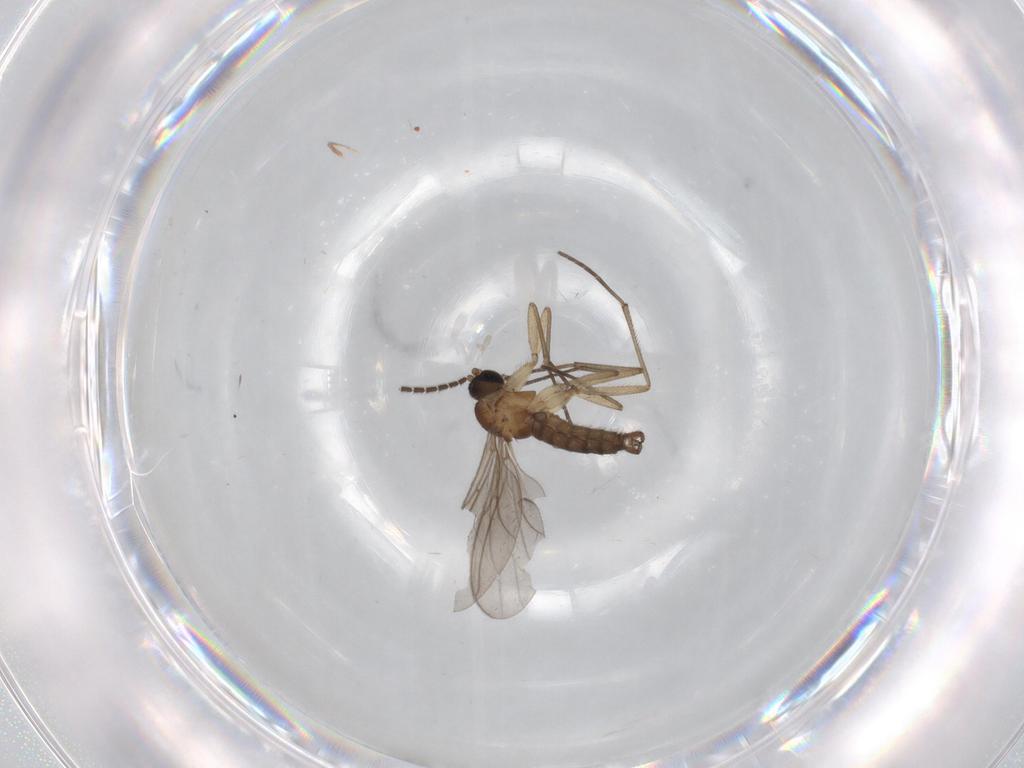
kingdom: Animalia
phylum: Arthropoda
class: Insecta
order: Diptera
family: Sciaridae
